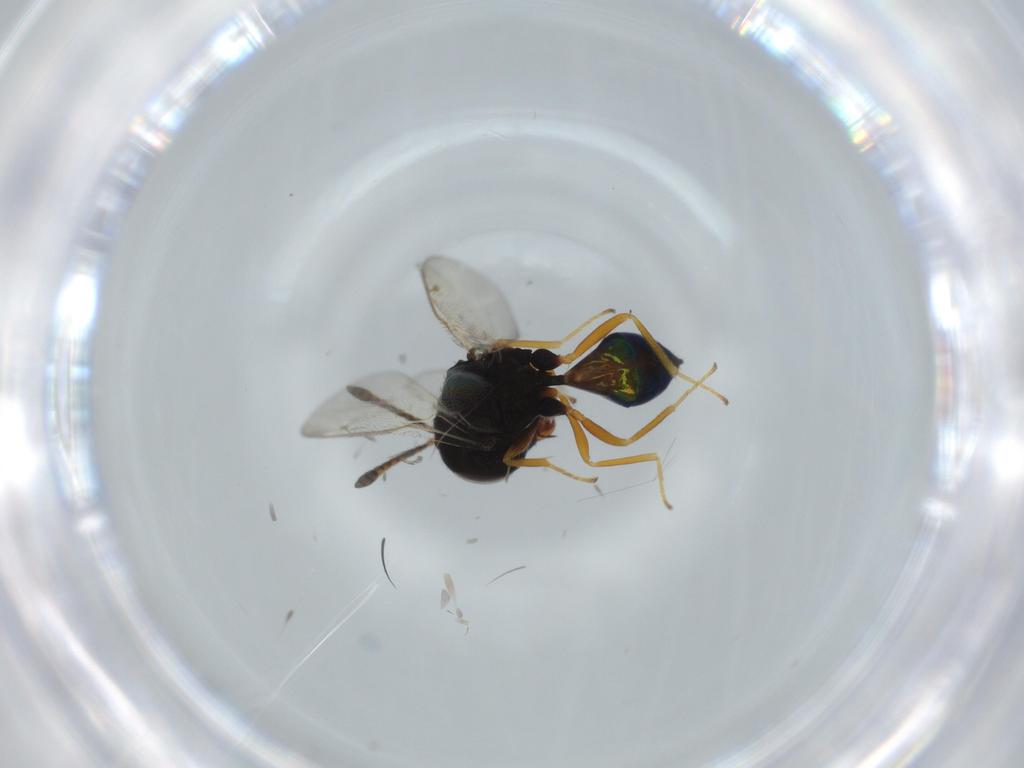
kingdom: Animalia
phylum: Arthropoda
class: Insecta
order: Hymenoptera
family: Pteromalidae
